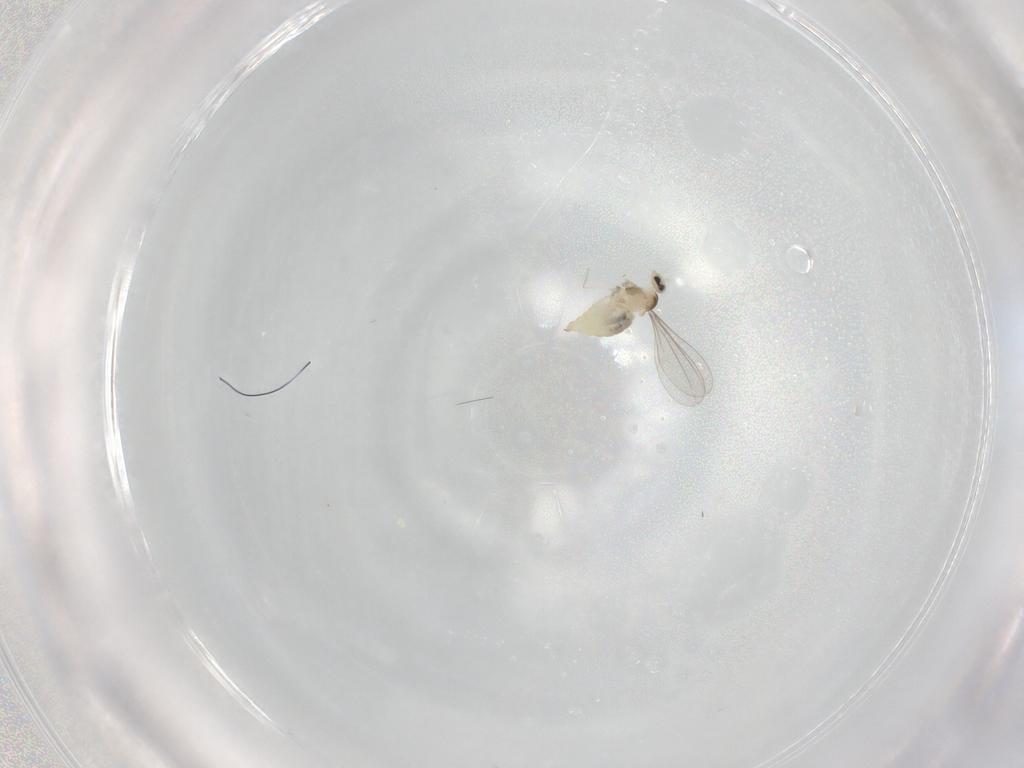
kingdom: Animalia
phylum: Arthropoda
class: Insecta
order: Diptera
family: Cecidomyiidae
